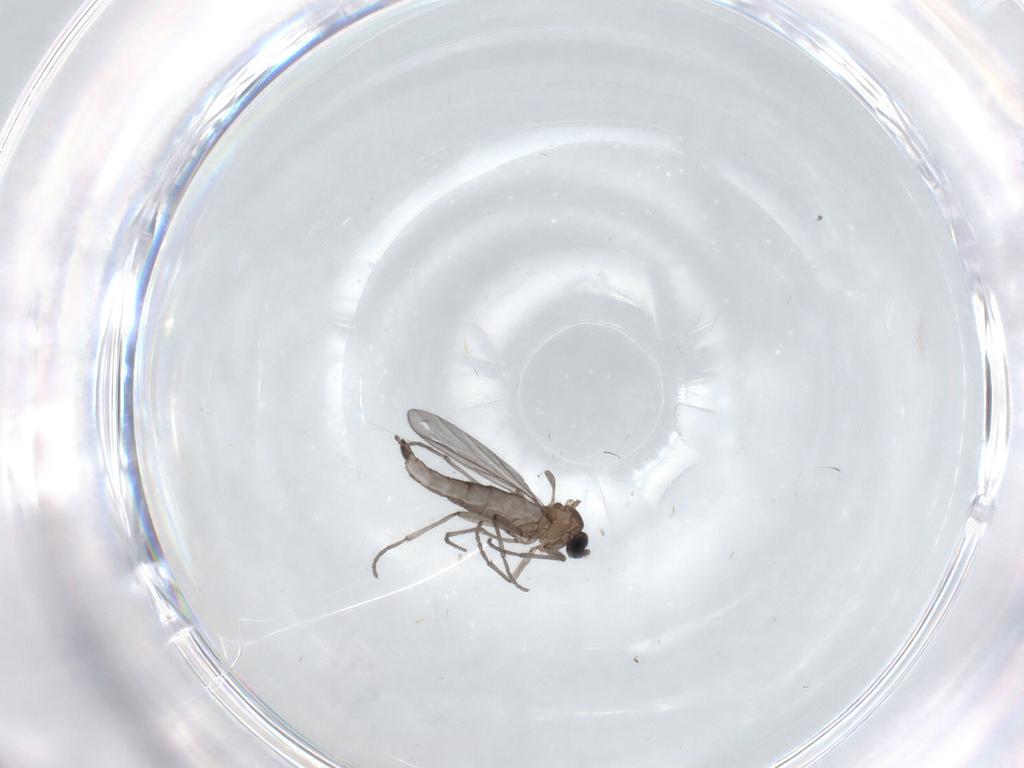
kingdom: Animalia
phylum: Arthropoda
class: Insecta
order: Diptera
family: Sciaridae
